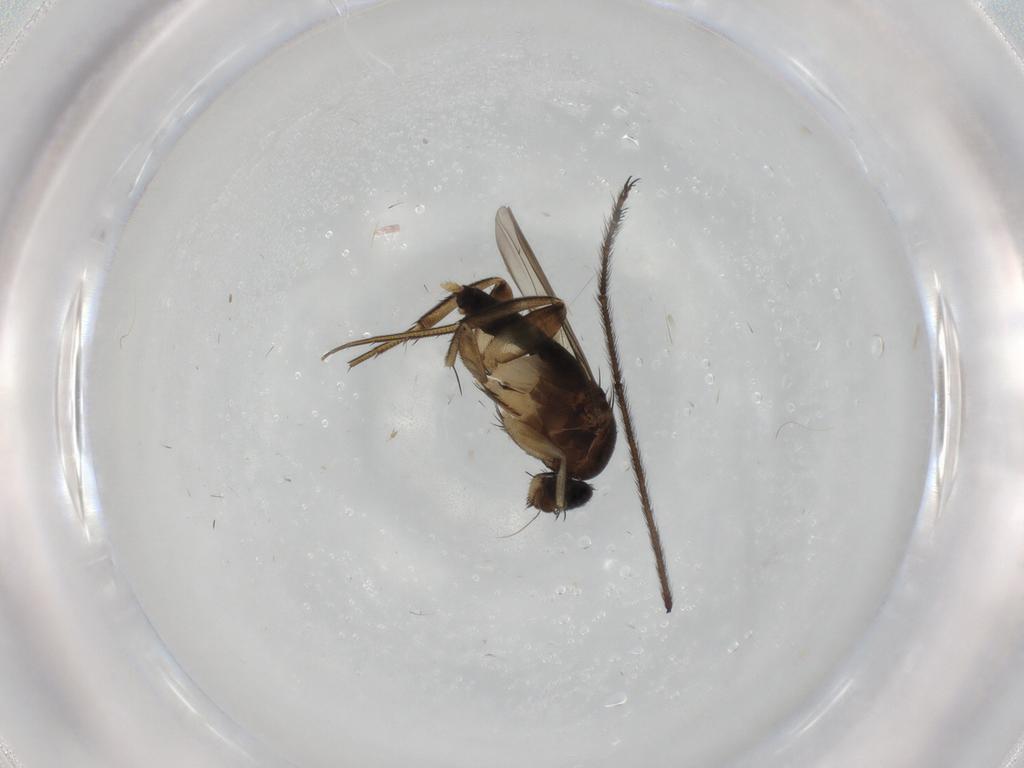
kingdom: Animalia
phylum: Arthropoda
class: Insecta
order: Diptera
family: Phoridae
